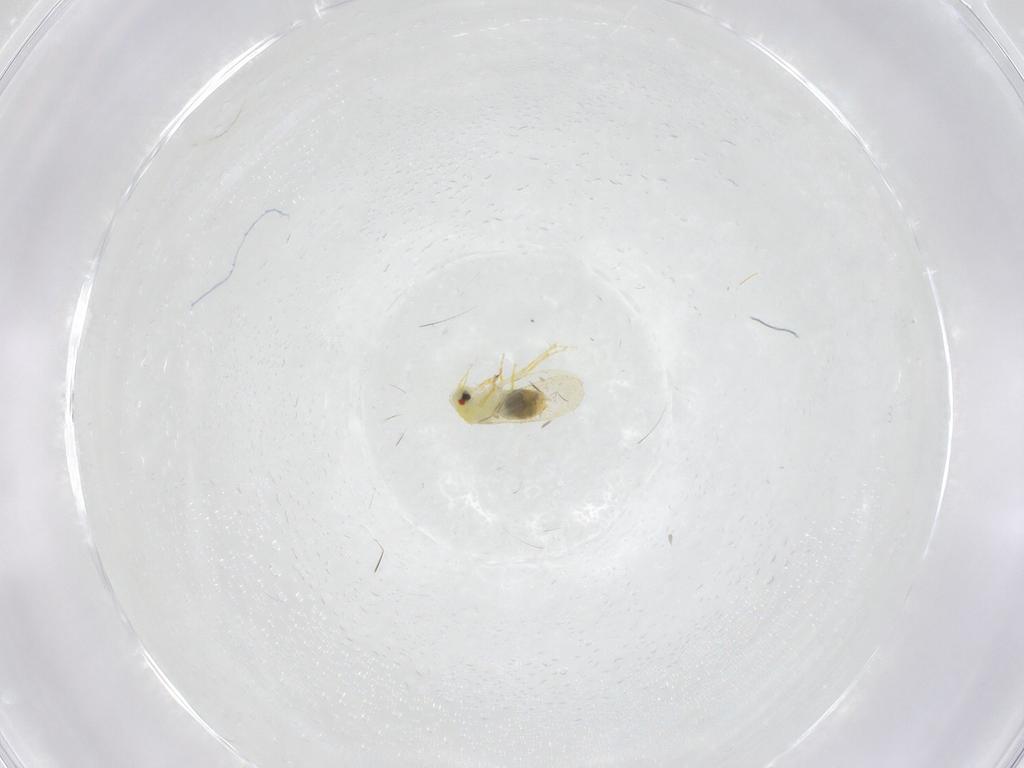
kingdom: Animalia
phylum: Arthropoda
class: Insecta
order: Hemiptera
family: Aleyrodidae
